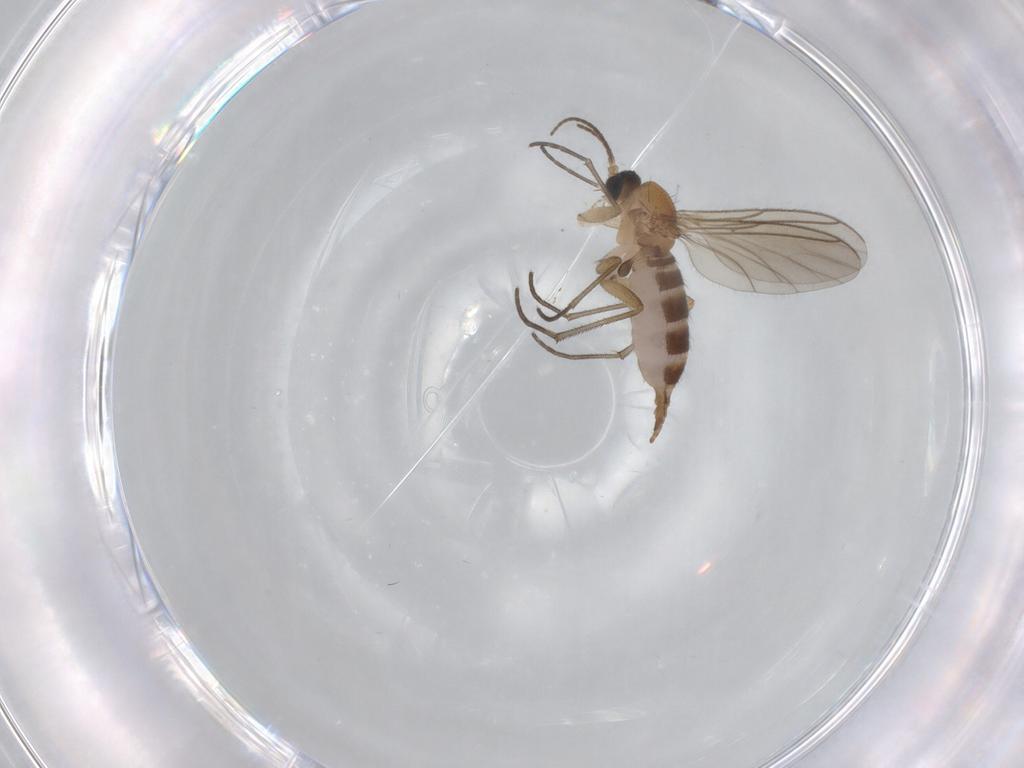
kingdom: Animalia
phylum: Arthropoda
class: Insecta
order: Diptera
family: Sciaridae
